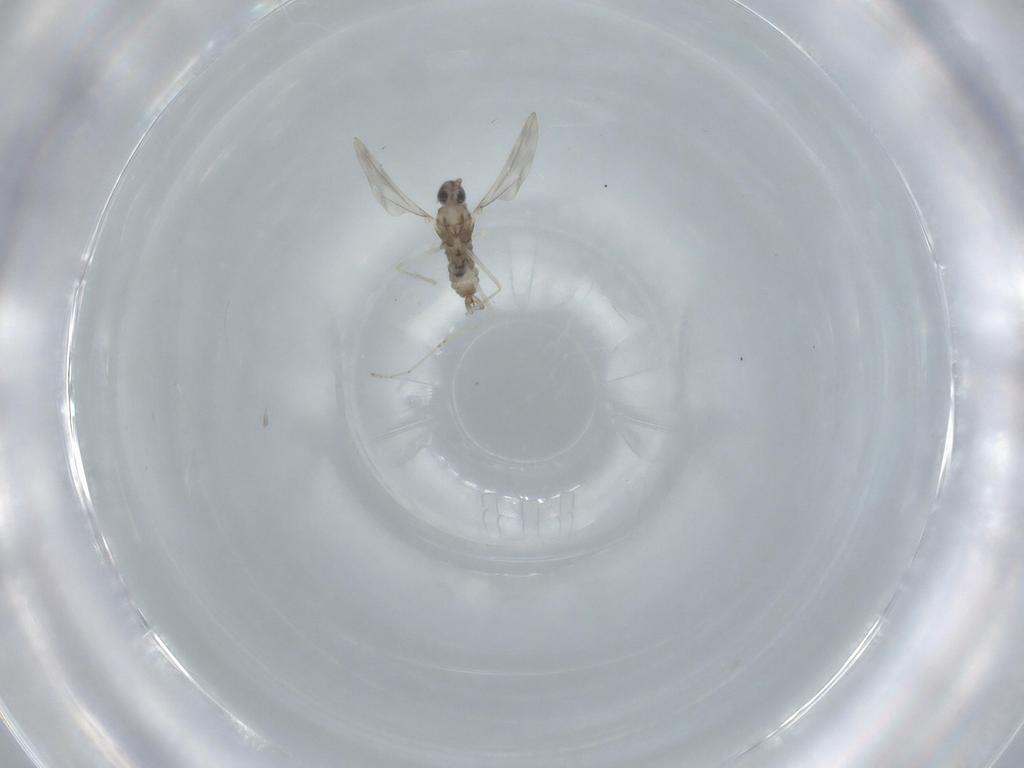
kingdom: Animalia
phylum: Arthropoda
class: Insecta
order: Diptera
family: Cecidomyiidae
